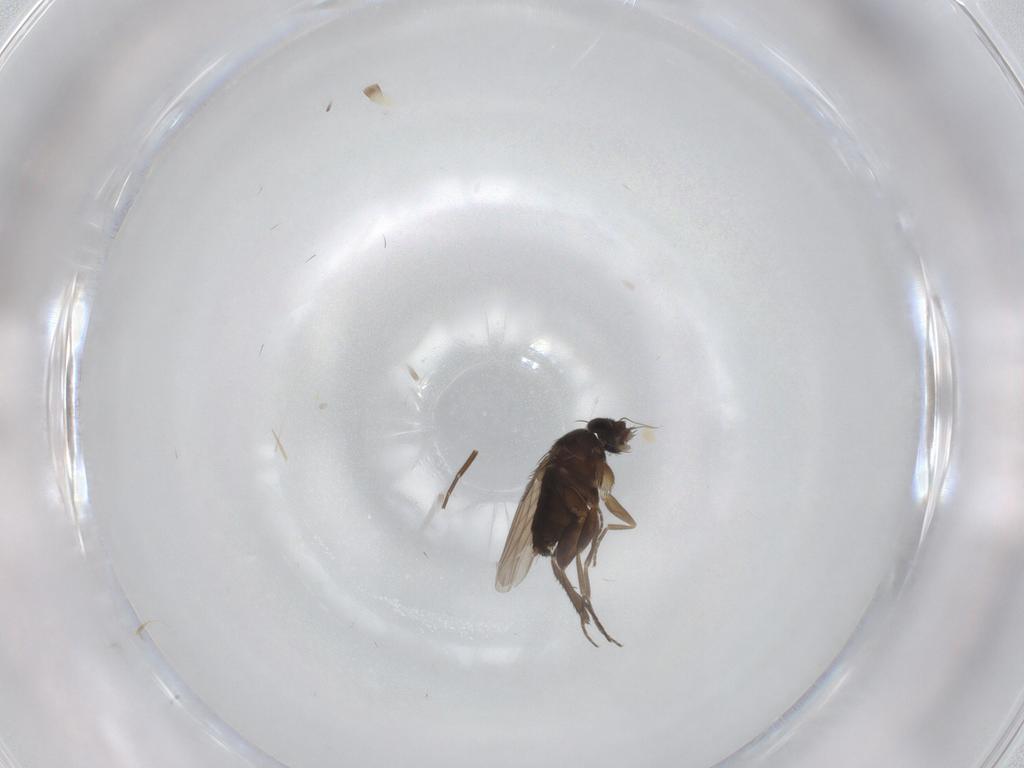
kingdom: Animalia
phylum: Arthropoda
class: Insecta
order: Diptera
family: Phoridae
